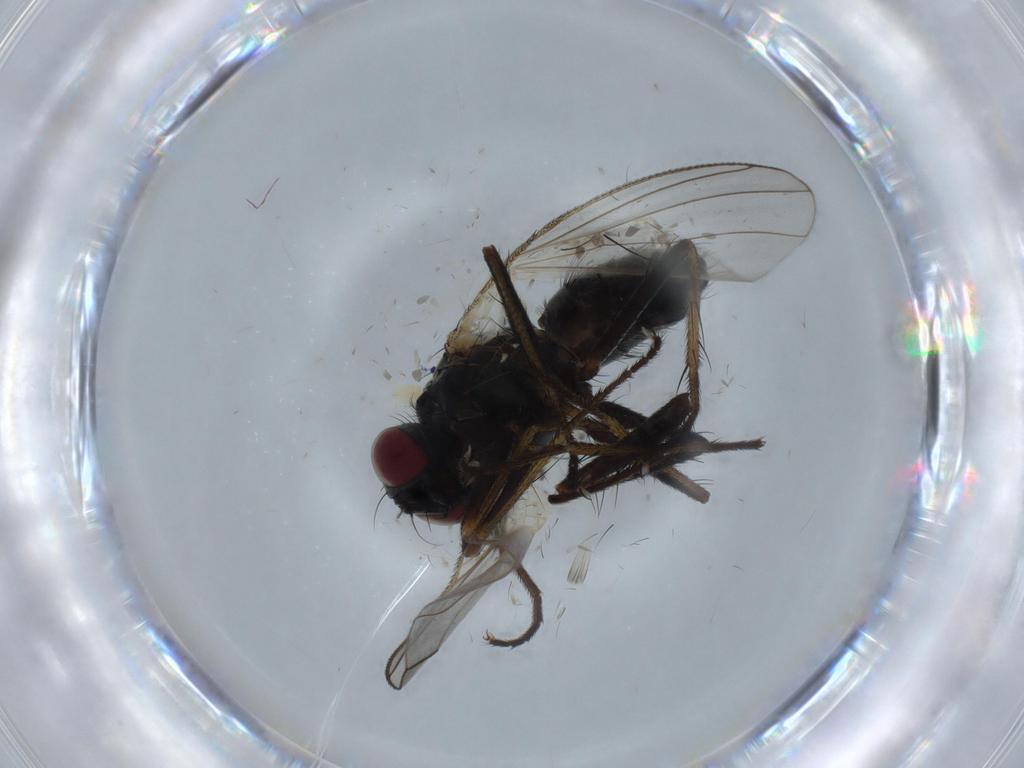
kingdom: Animalia
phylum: Arthropoda
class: Insecta
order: Diptera
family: Anthomyiidae
